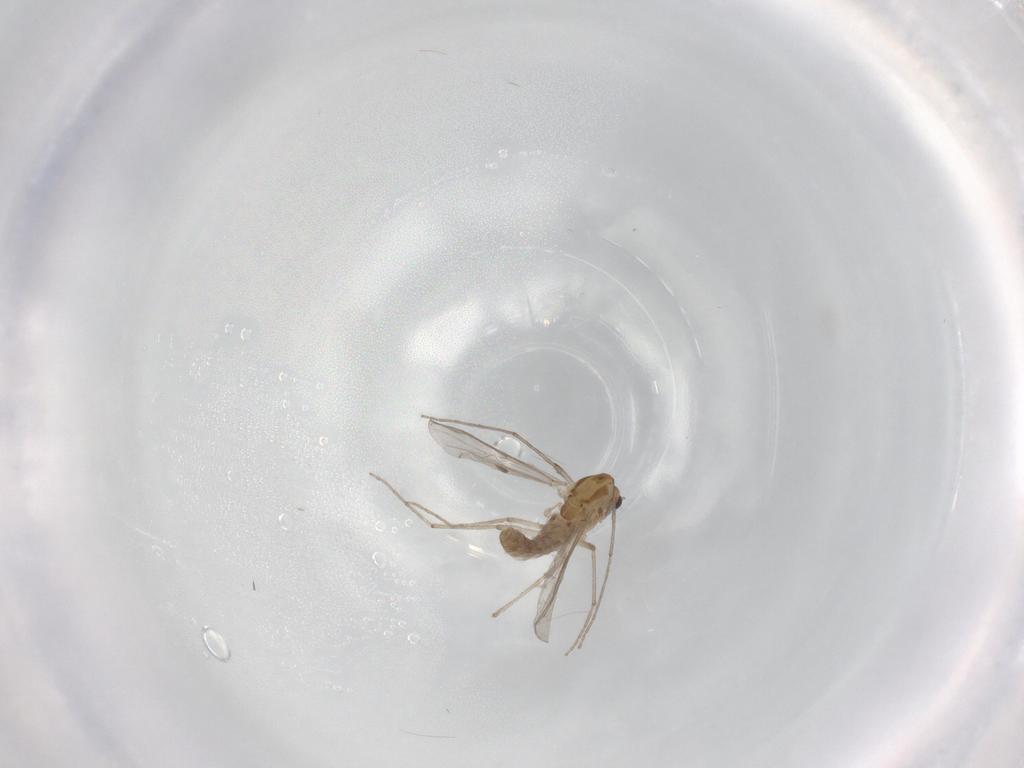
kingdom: Animalia
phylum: Arthropoda
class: Insecta
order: Diptera
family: Chironomidae
